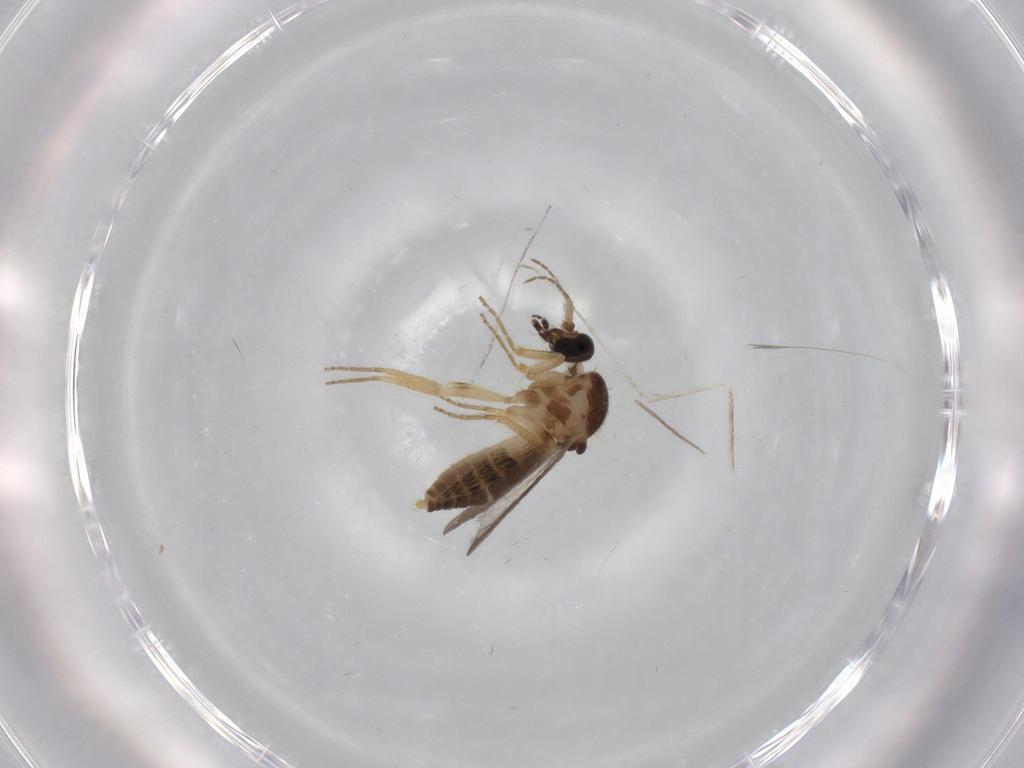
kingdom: Animalia
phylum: Arthropoda
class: Insecta
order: Diptera
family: Ceratopogonidae
